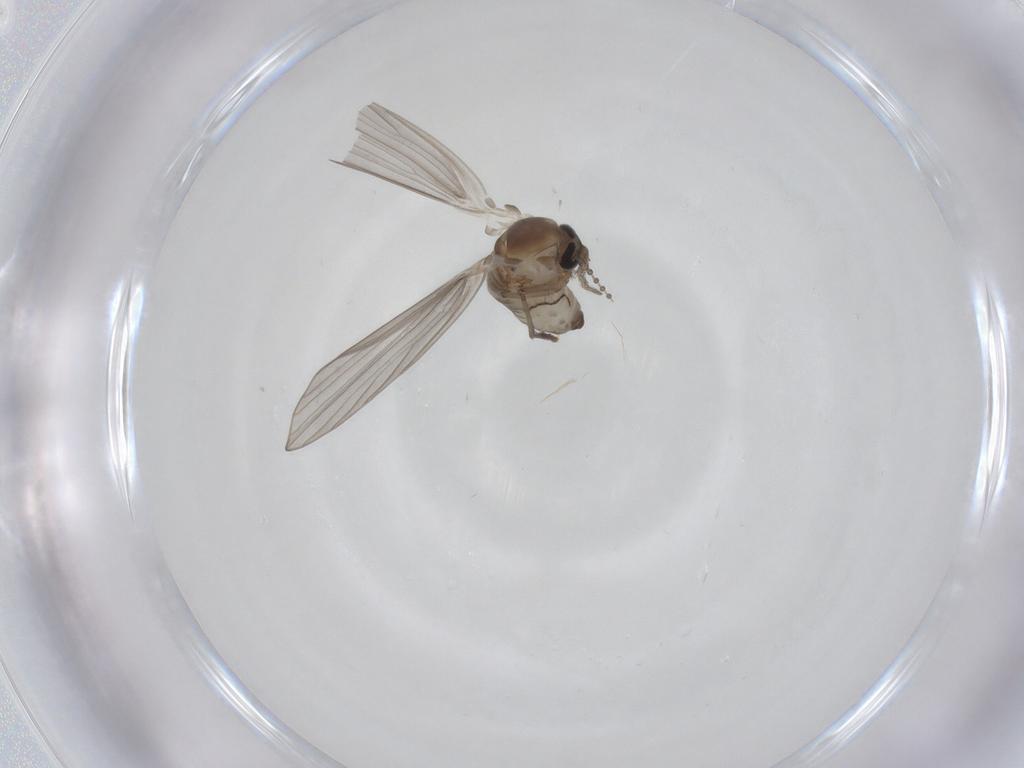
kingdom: Animalia
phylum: Arthropoda
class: Insecta
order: Diptera
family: Psychodidae
